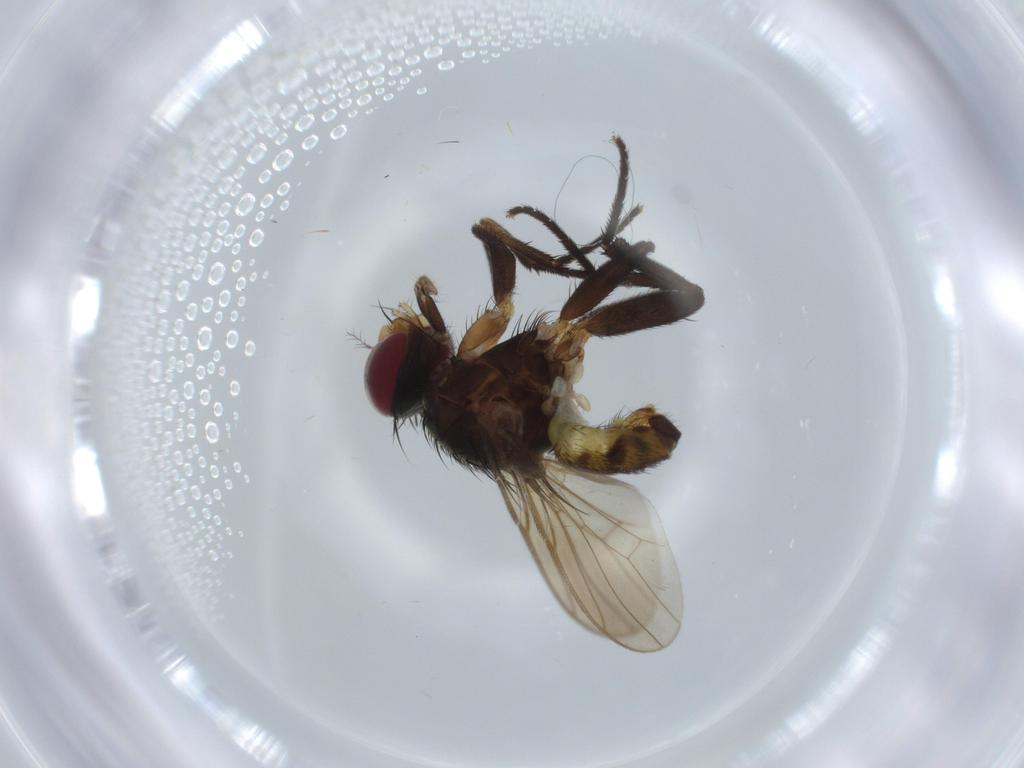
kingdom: Animalia
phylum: Arthropoda
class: Insecta
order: Diptera
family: Anthomyiidae
